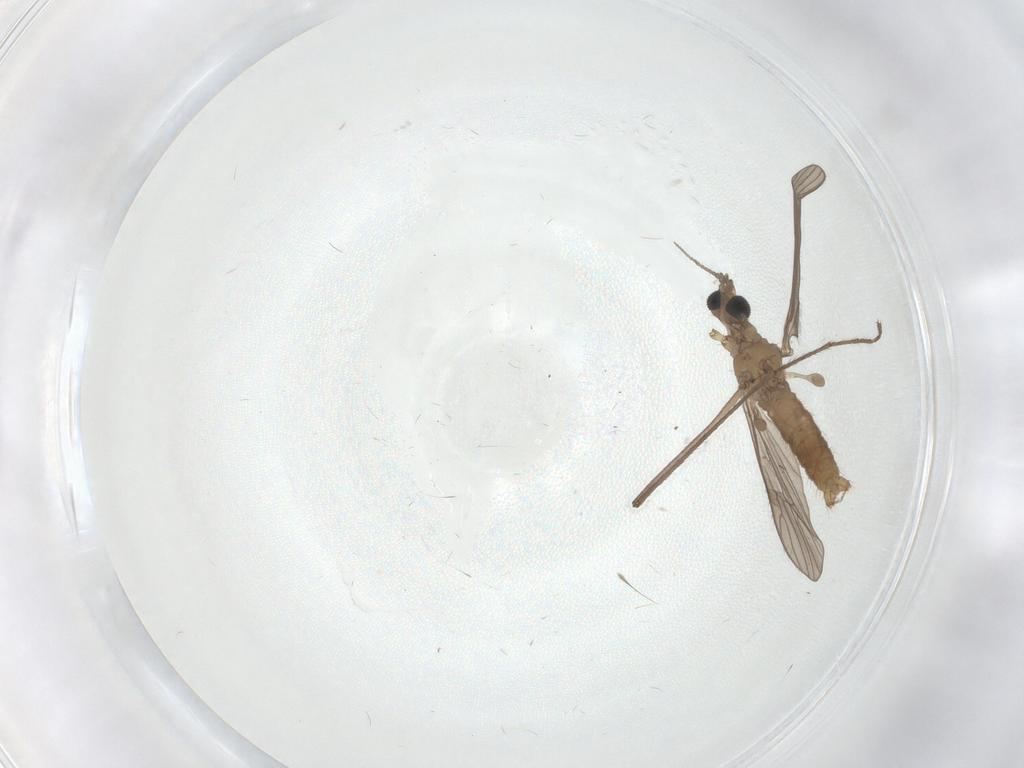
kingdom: Animalia
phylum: Arthropoda
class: Insecta
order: Diptera
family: Limoniidae
